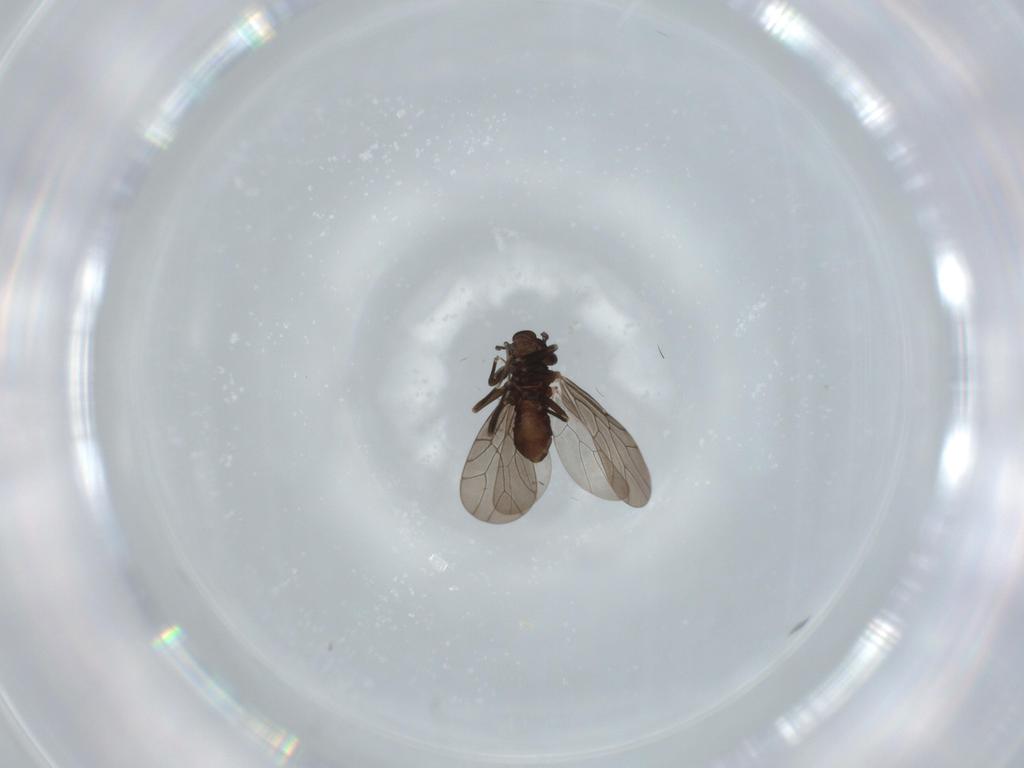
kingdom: Animalia
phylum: Arthropoda
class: Insecta
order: Psocodea
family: Lepidopsocidae
